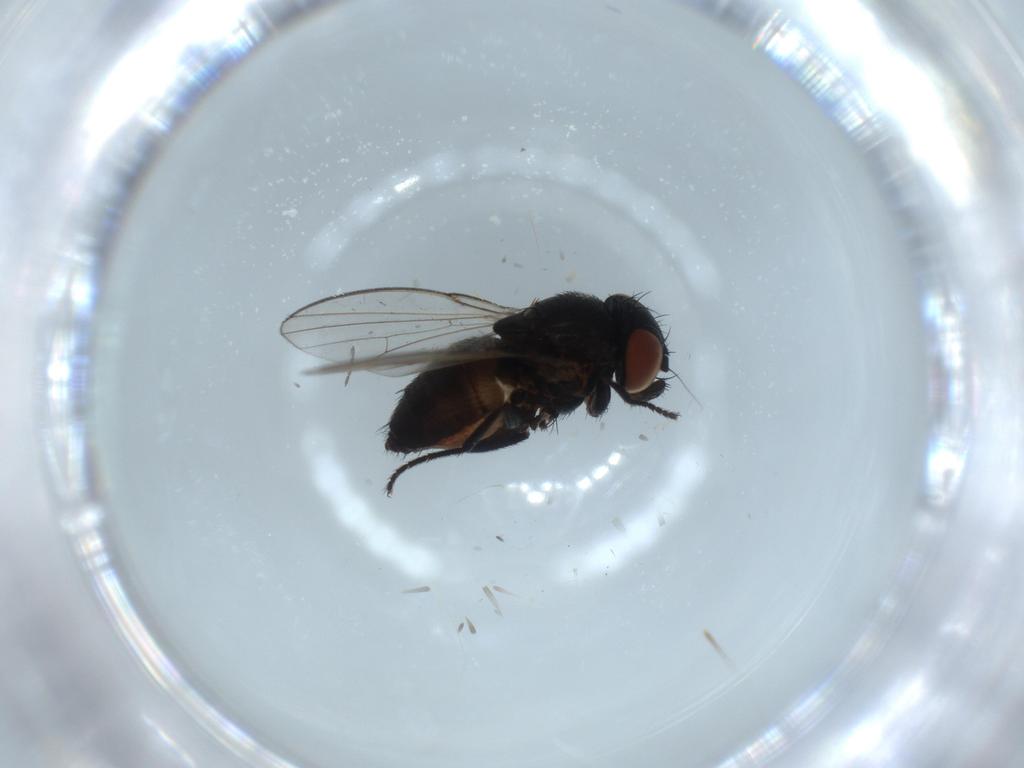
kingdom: Animalia
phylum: Arthropoda
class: Insecta
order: Diptera
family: Milichiidae
